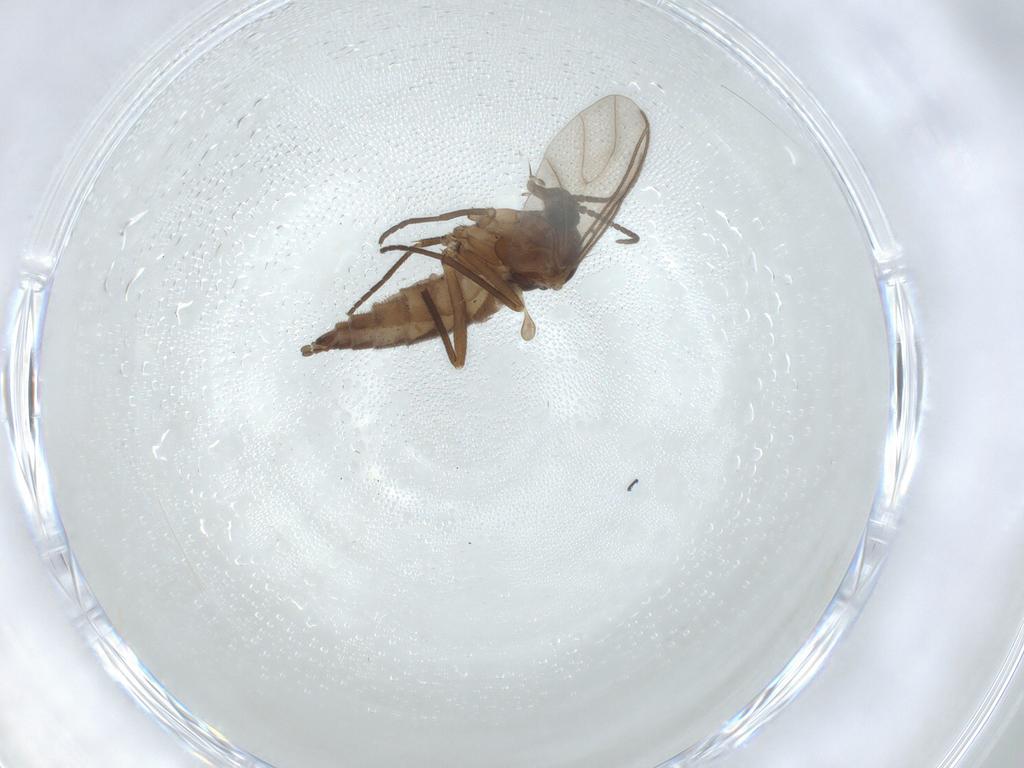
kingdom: Animalia
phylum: Arthropoda
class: Insecta
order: Diptera
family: Sciaridae
